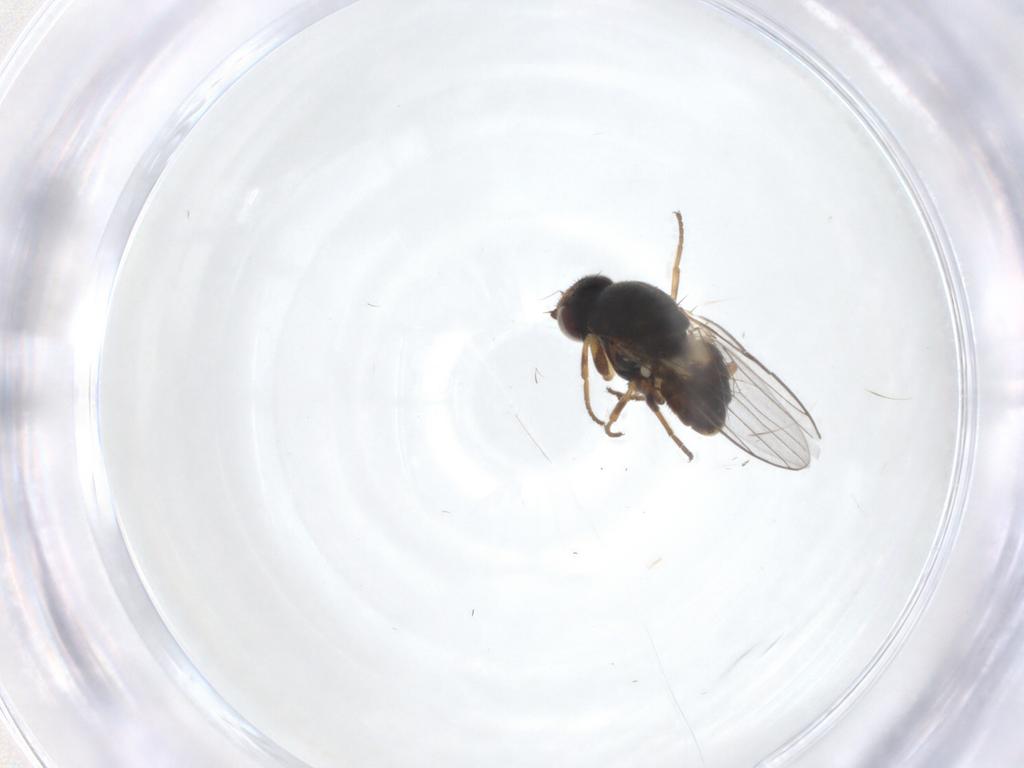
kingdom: Animalia
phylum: Arthropoda
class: Insecta
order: Diptera
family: Chloropidae
